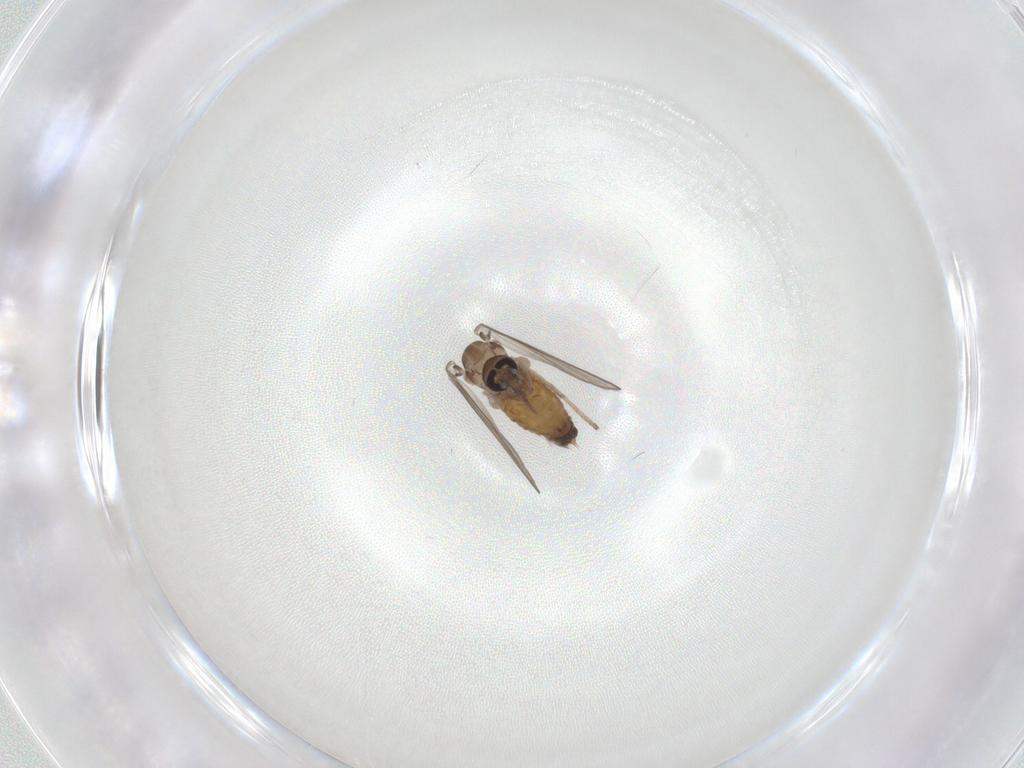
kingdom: Animalia
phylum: Arthropoda
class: Insecta
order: Diptera
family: Psychodidae
